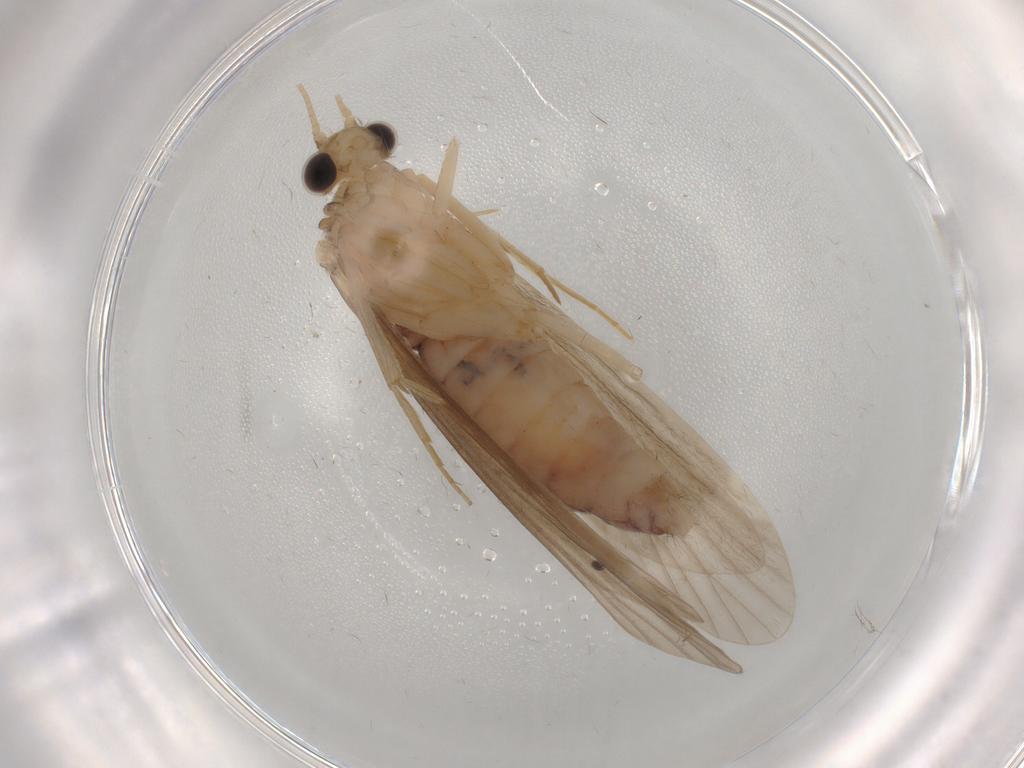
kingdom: Animalia
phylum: Arthropoda
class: Insecta
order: Trichoptera
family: Ecnomidae
